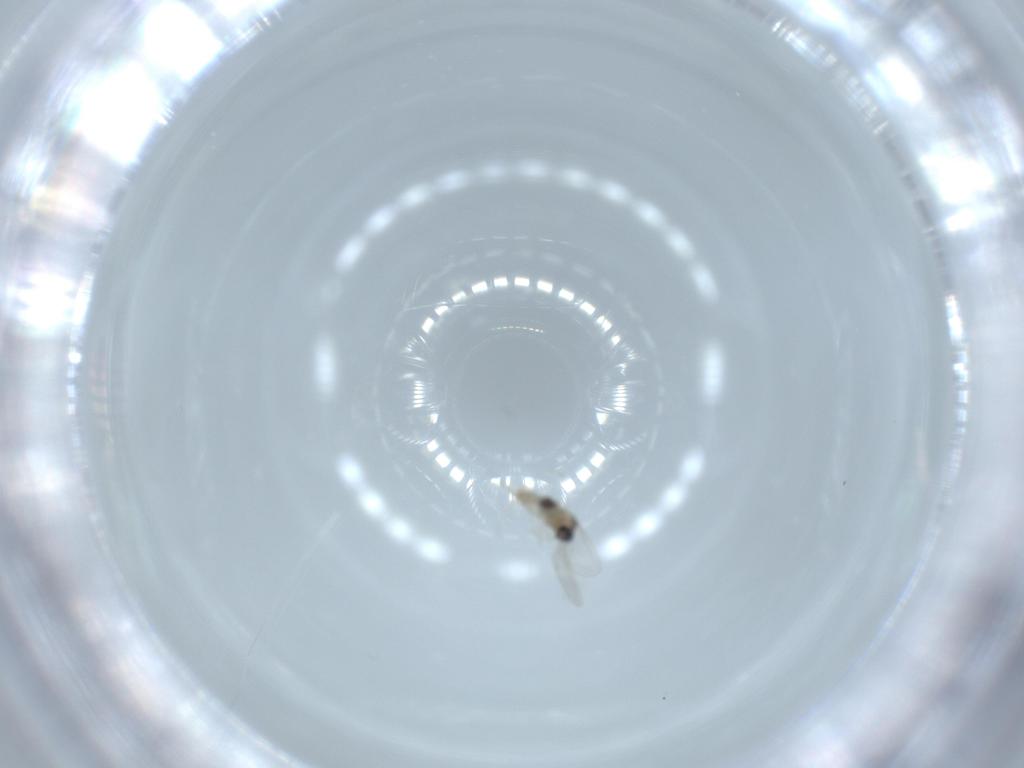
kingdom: Animalia
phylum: Arthropoda
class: Insecta
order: Diptera
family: Cecidomyiidae
